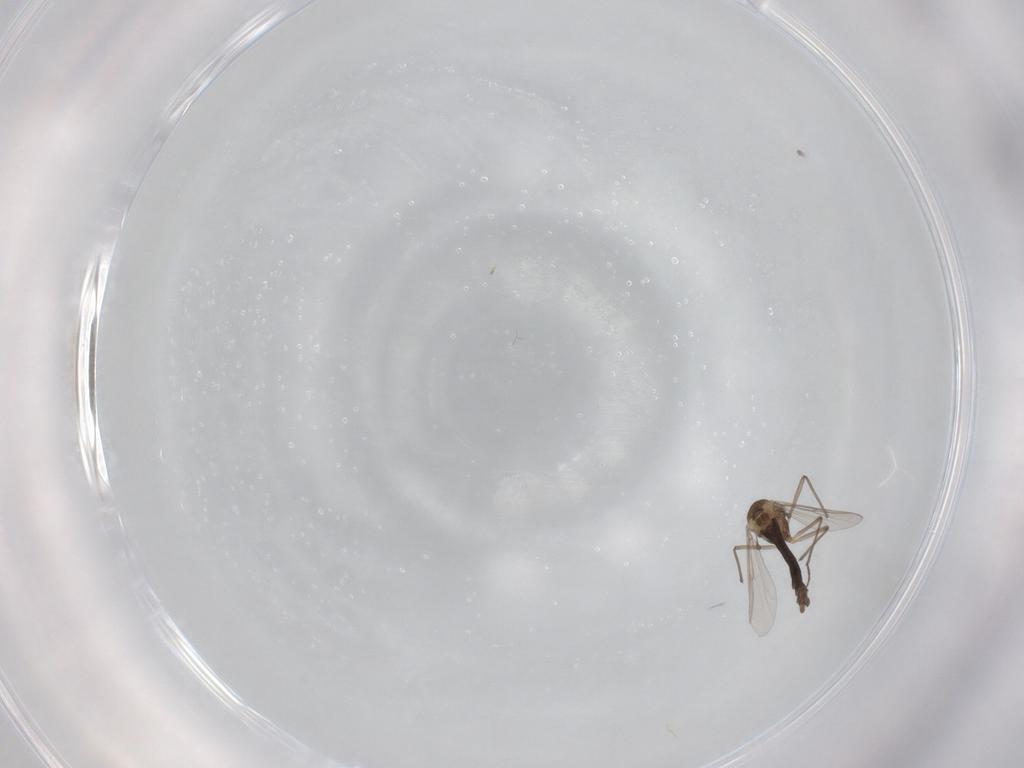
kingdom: Animalia
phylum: Arthropoda
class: Insecta
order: Diptera
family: Chironomidae
